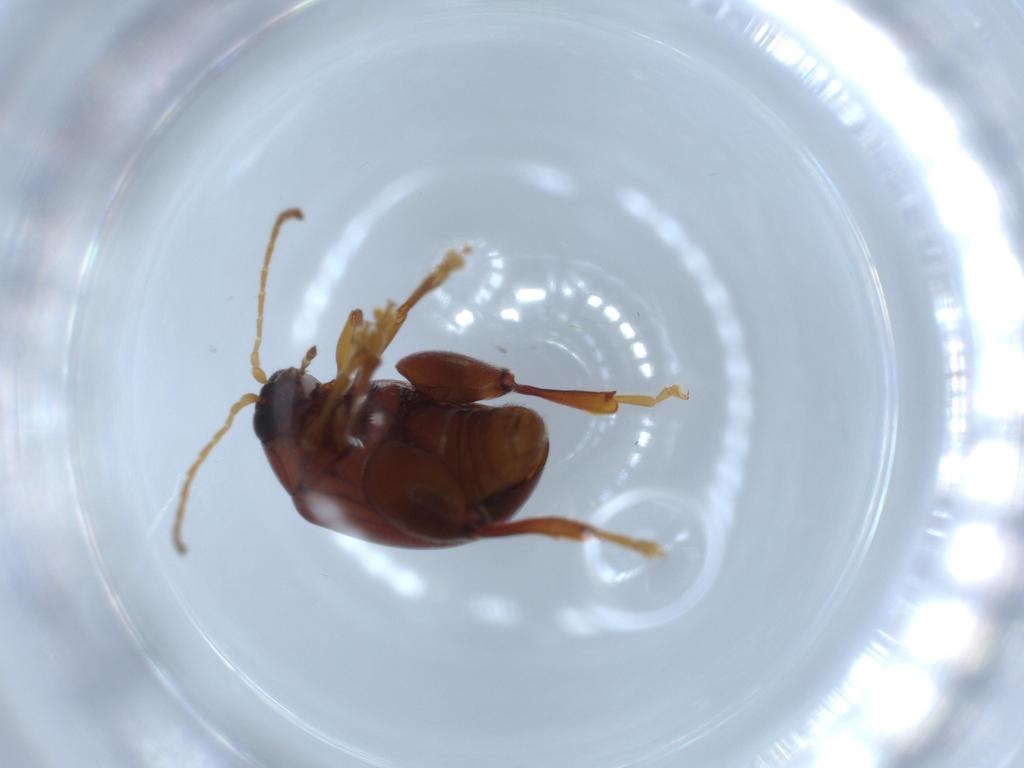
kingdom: Animalia
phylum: Arthropoda
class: Insecta
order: Coleoptera
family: Chrysomelidae
